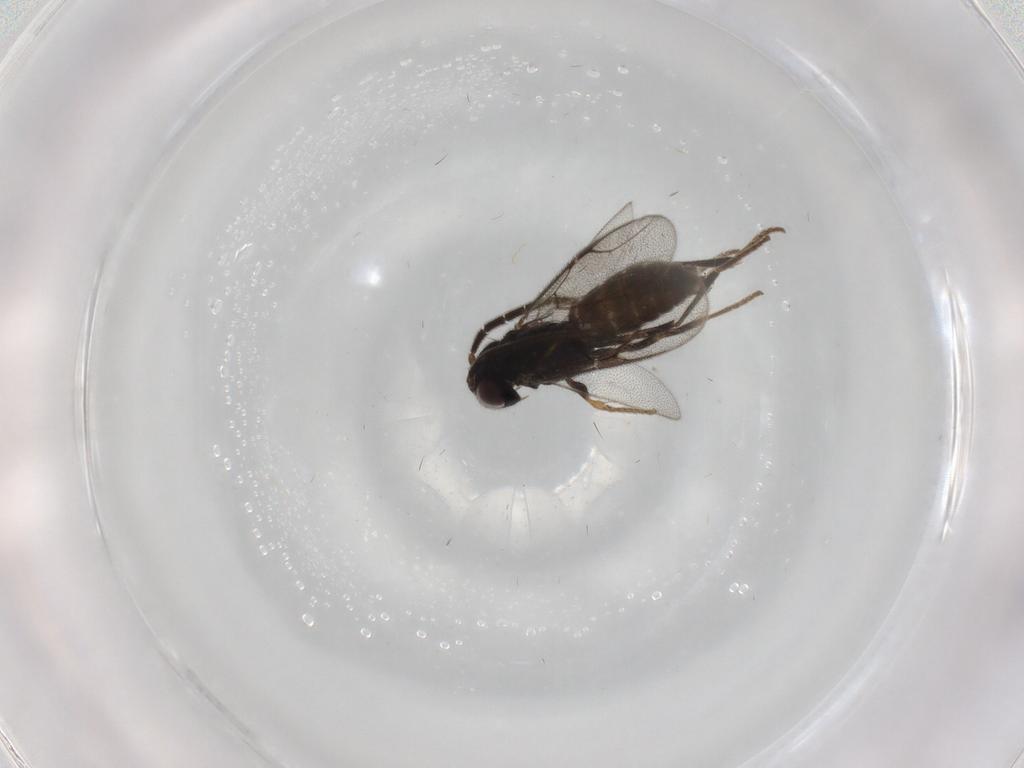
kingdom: Animalia
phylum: Arthropoda
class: Insecta
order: Hymenoptera
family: Dryinidae
